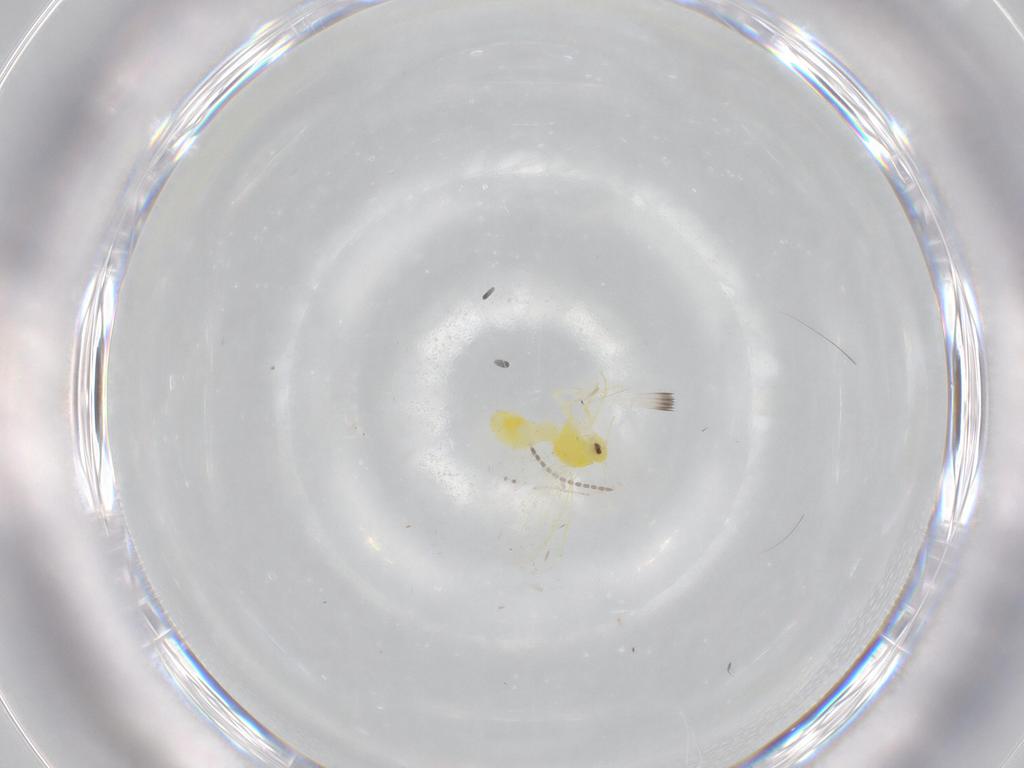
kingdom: Animalia
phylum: Arthropoda
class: Insecta
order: Hemiptera
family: Aleyrodidae
